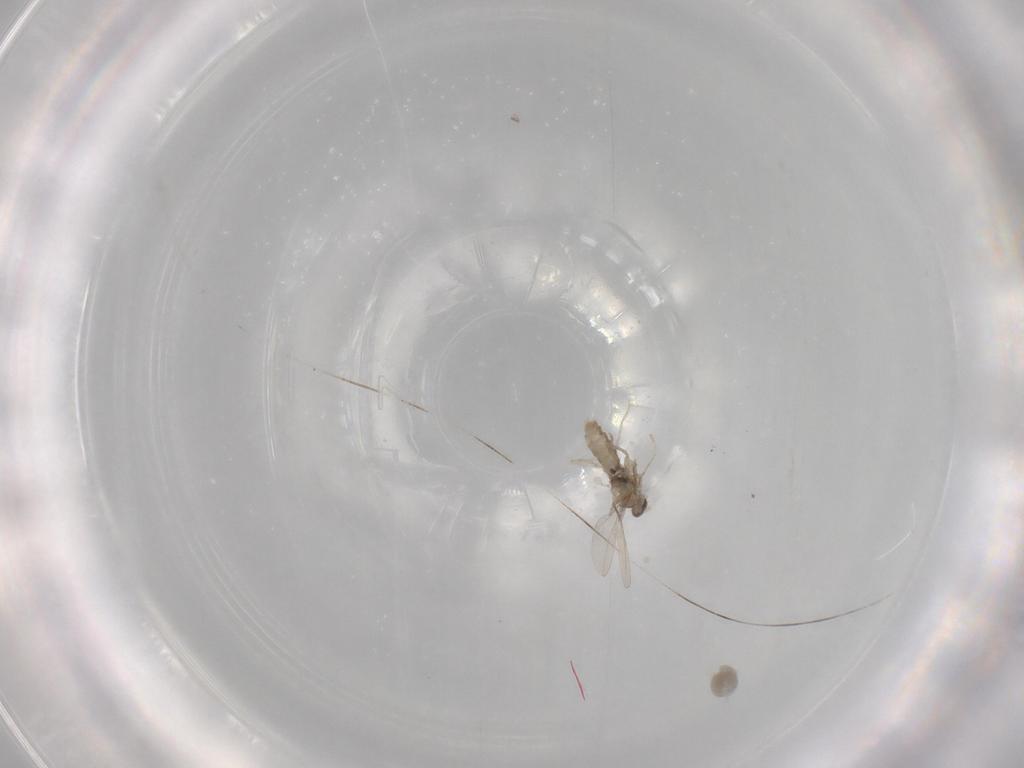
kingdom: Animalia
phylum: Arthropoda
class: Insecta
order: Diptera
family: Cecidomyiidae
